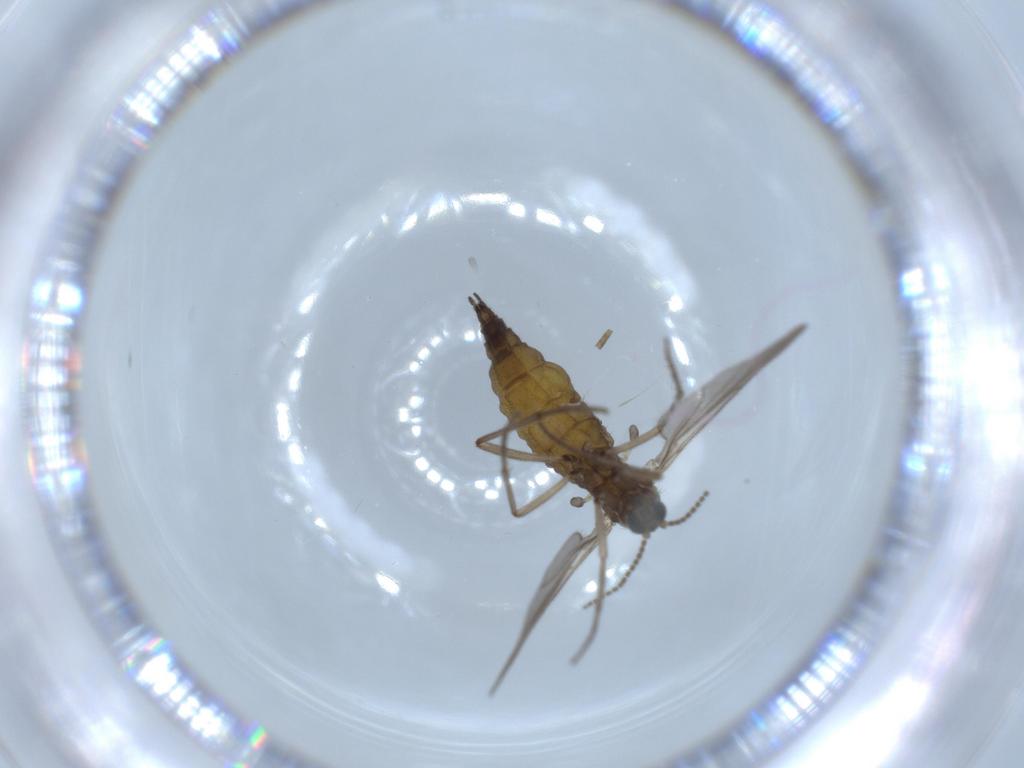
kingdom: Animalia
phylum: Arthropoda
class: Insecta
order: Diptera
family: Sciaridae
